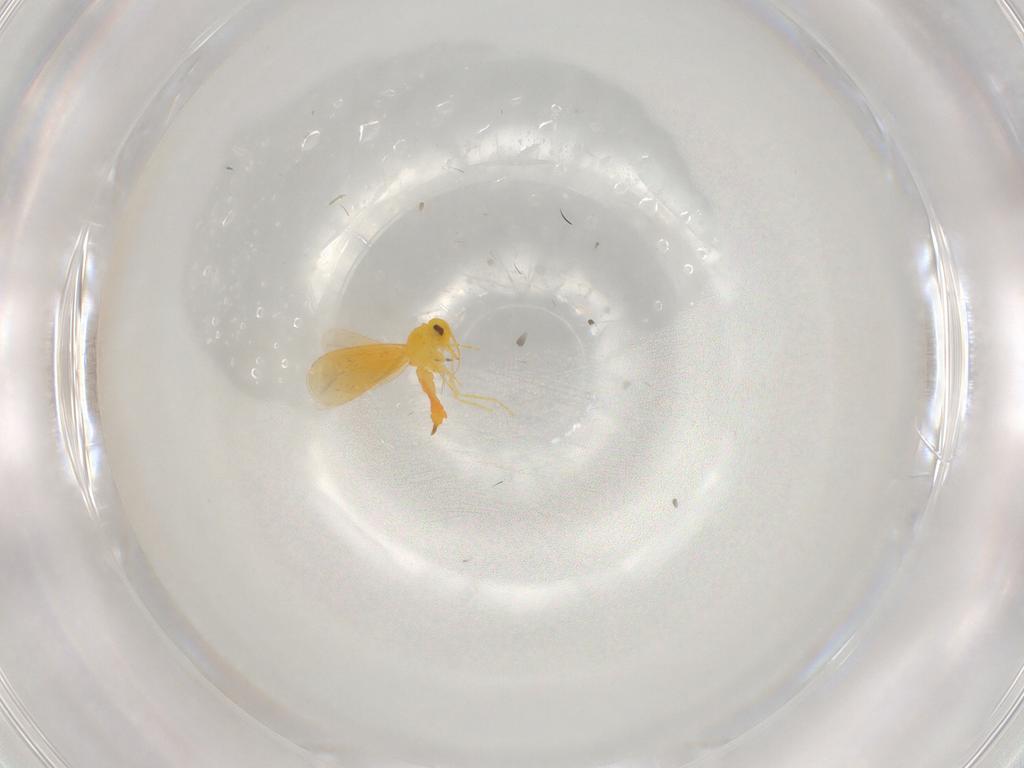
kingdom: Animalia
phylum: Arthropoda
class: Insecta
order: Hemiptera
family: Aleyrodidae
